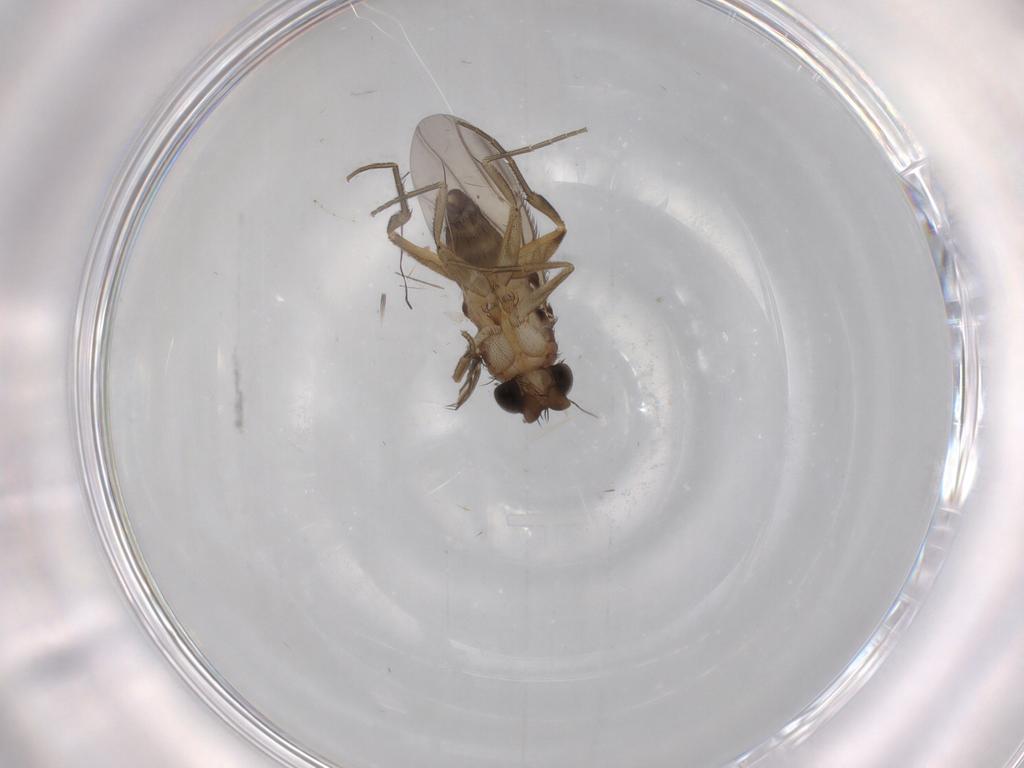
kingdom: Animalia
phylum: Arthropoda
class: Insecta
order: Diptera
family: Phoridae
